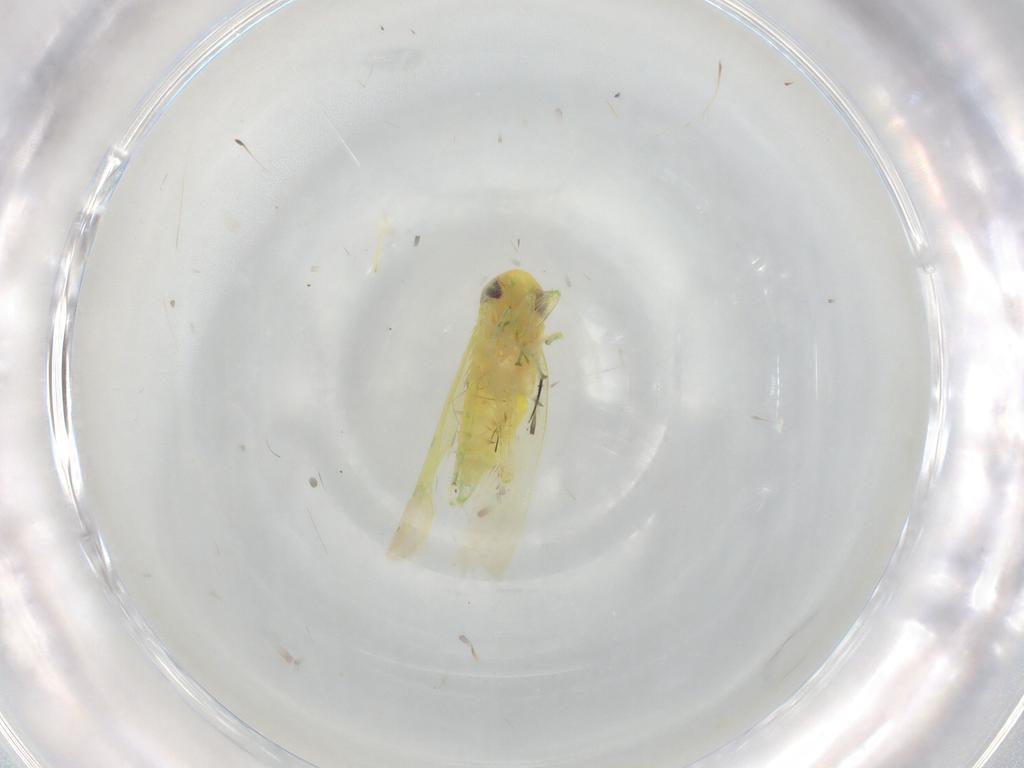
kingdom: Animalia
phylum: Arthropoda
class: Insecta
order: Hemiptera
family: Cicadellidae
